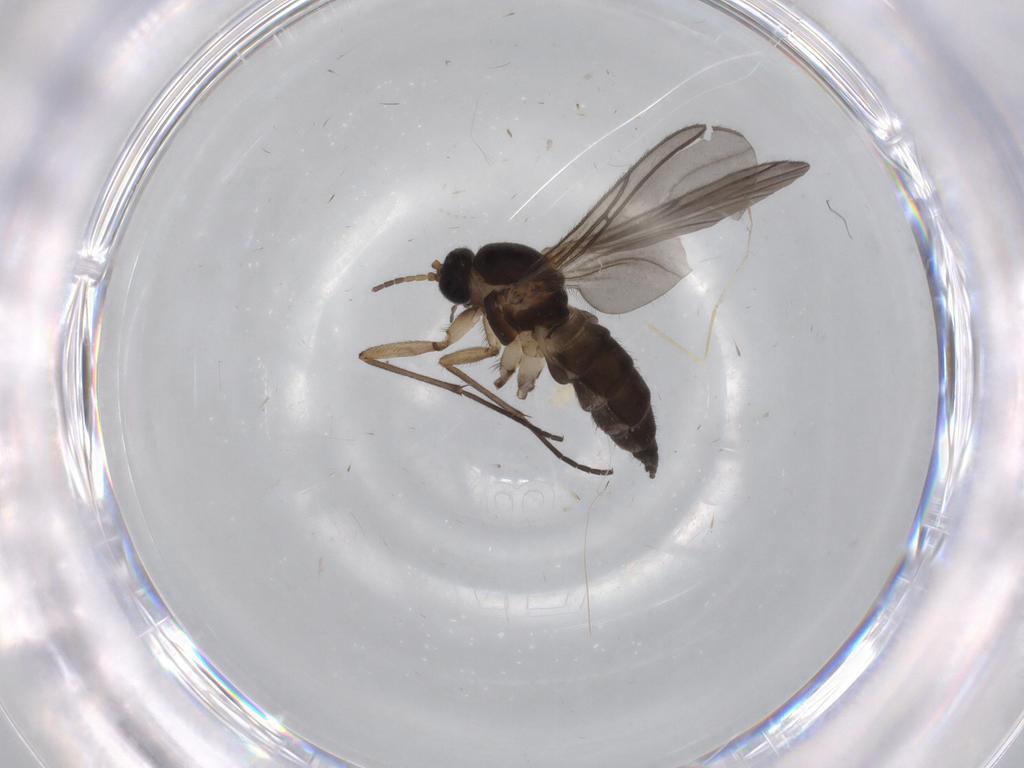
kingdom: Animalia
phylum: Arthropoda
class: Insecta
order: Diptera
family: Sciaridae
